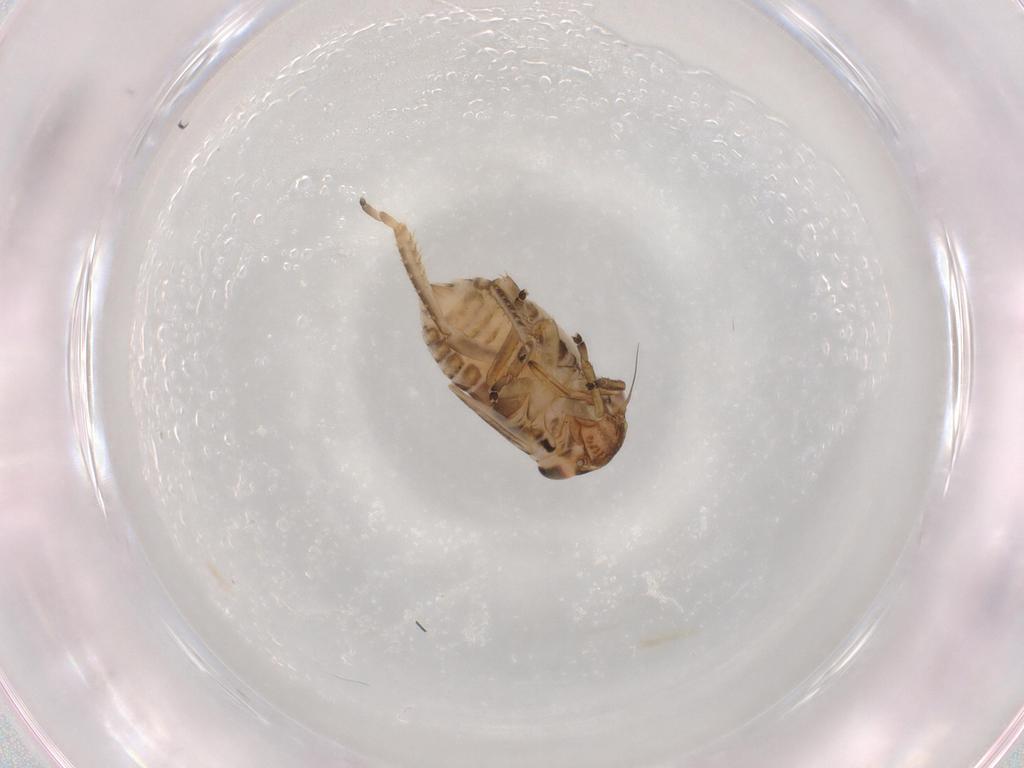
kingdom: Animalia
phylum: Arthropoda
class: Insecta
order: Hemiptera
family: Cicadellidae
